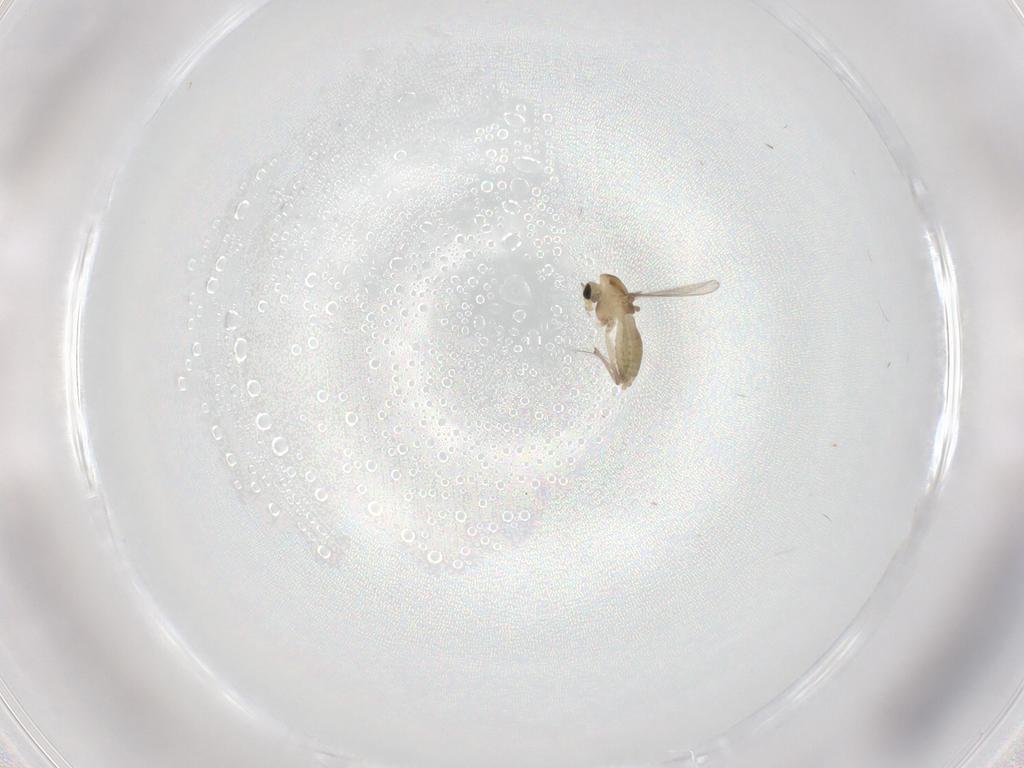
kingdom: Animalia
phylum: Arthropoda
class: Insecta
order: Diptera
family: Chironomidae
